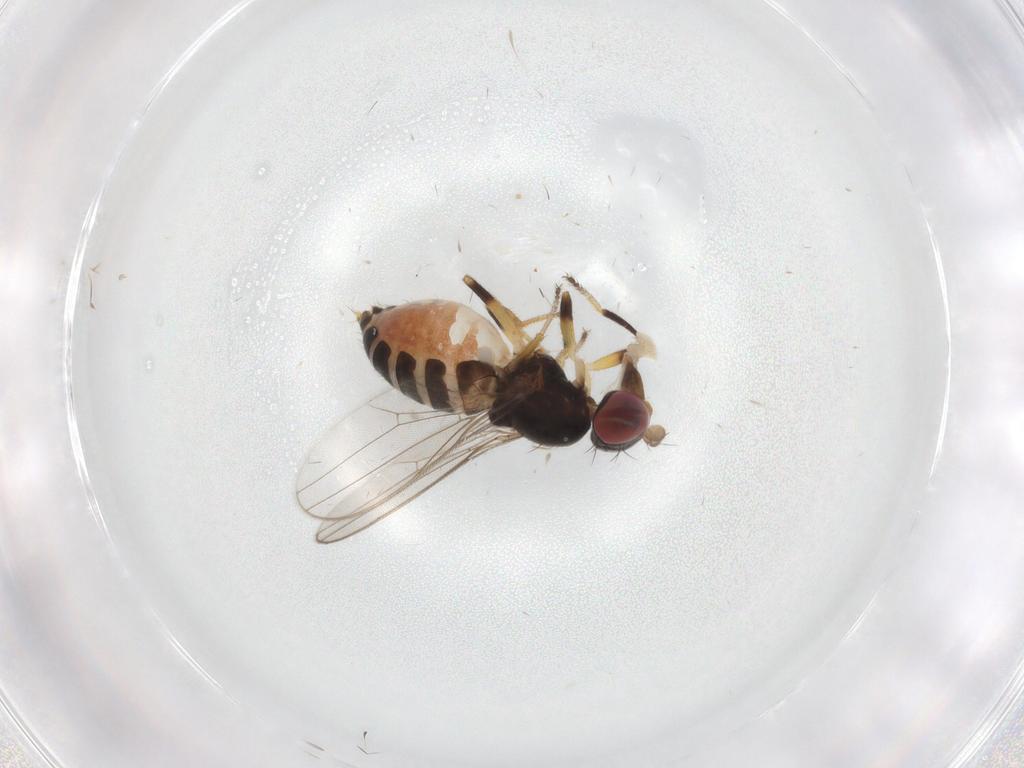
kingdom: Animalia
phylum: Arthropoda
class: Insecta
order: Diptera
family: Aulacigastridae
